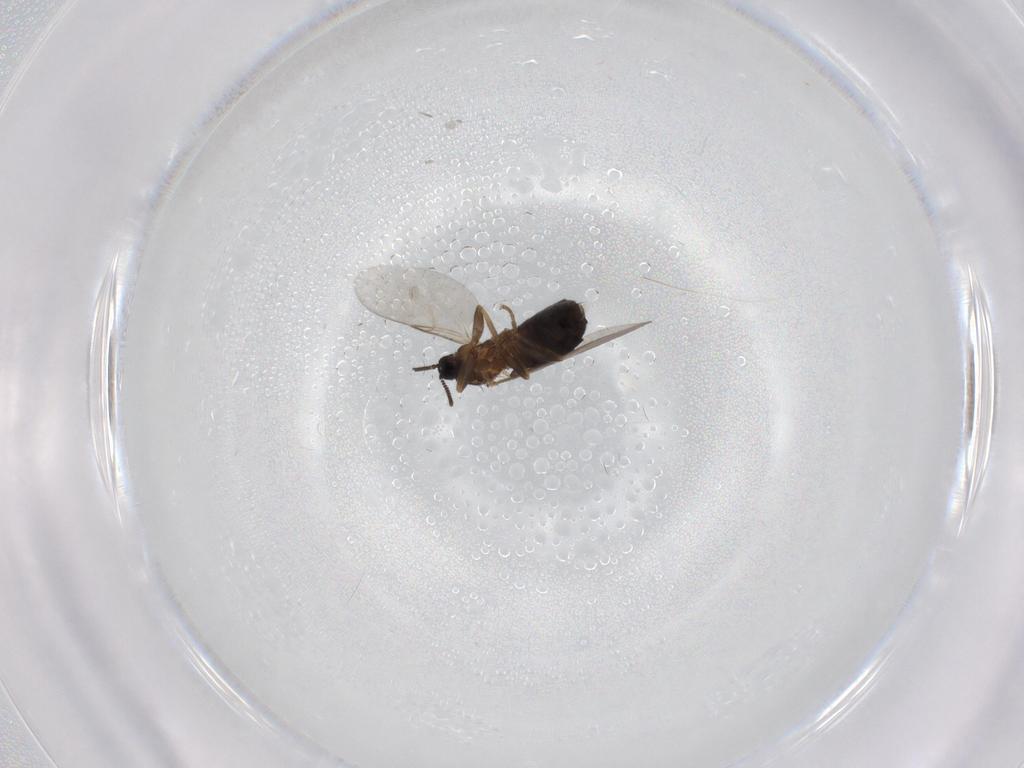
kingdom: Animalia
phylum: Arthropoda
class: Insecta
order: Diptera
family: Scatopsidae
